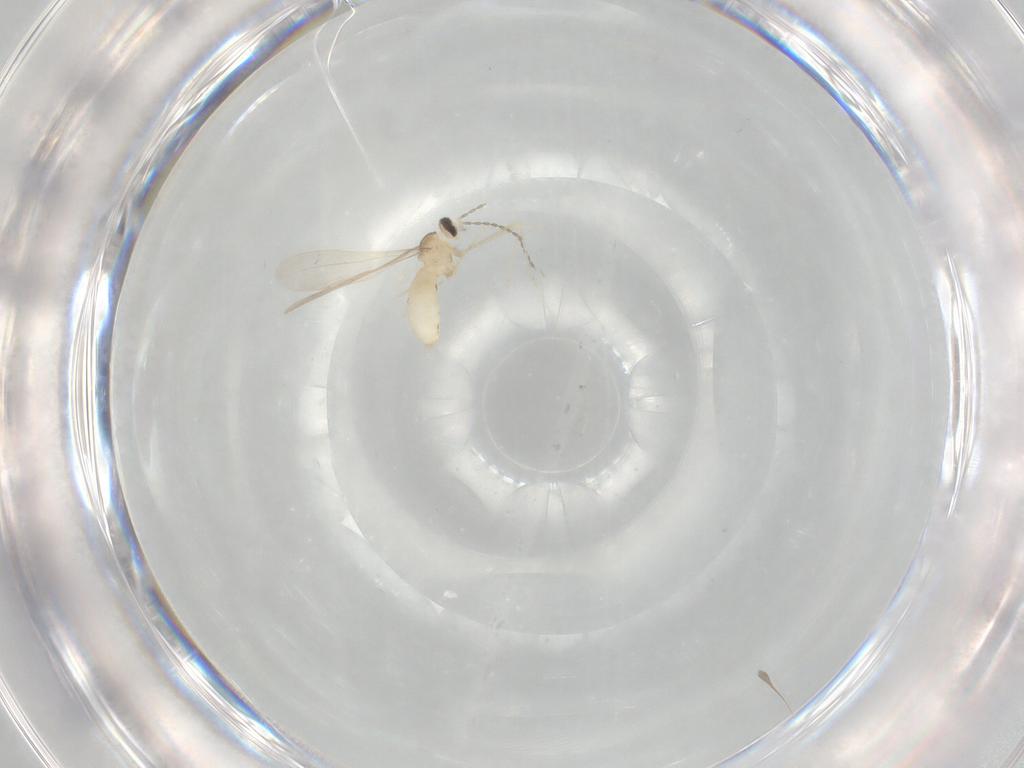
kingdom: Animalia
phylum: Arthropoda
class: Insecta
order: Diptera
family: Cecidomyiidae
